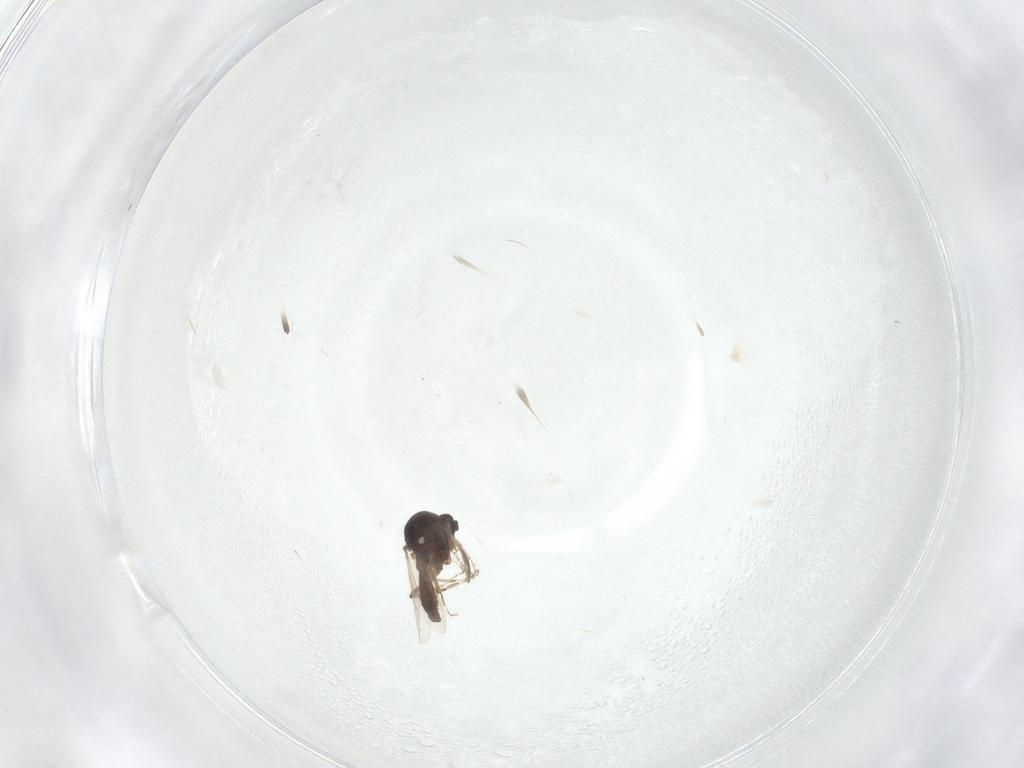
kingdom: Animalia
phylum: Arthropoda
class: Insecta
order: Diptera
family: Ceratopogonidae
